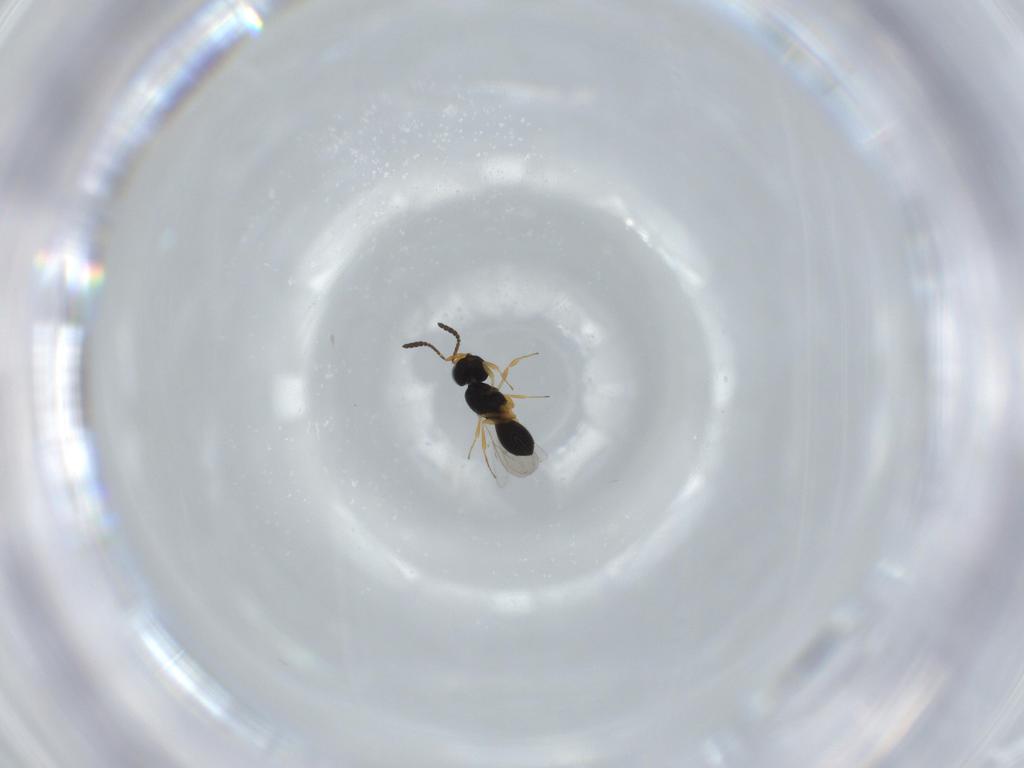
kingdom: Animalia
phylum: Arthropoda
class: Insecta
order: Hymenoptera
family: Scelionidae
